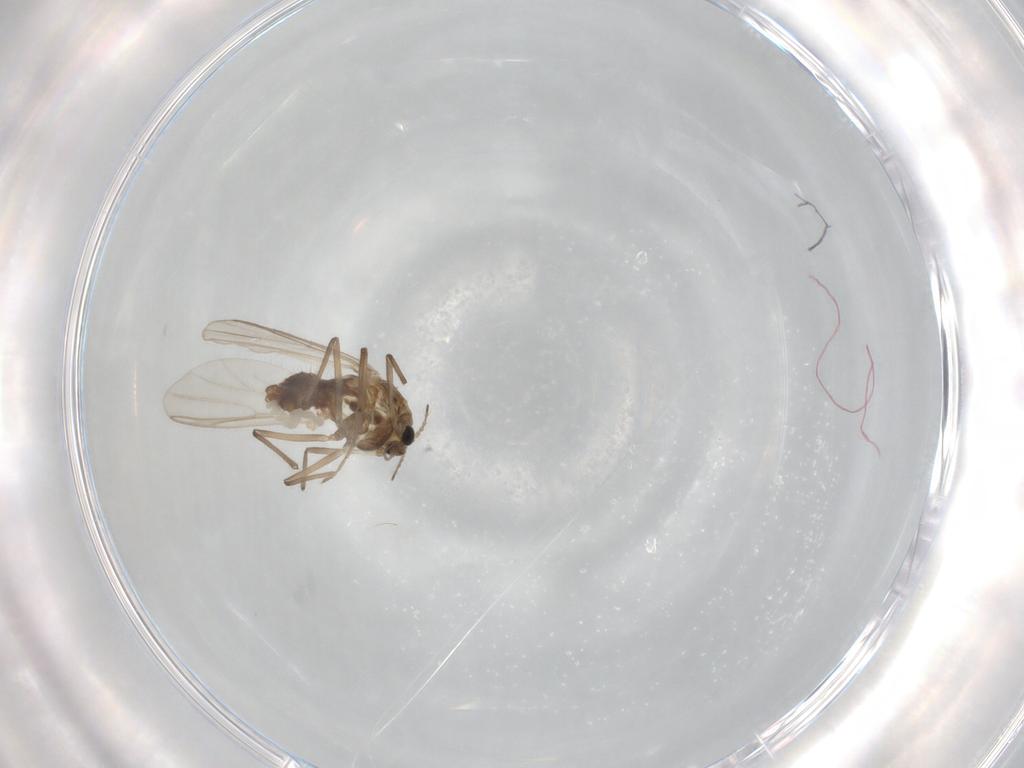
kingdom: Animalia
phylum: Arthropoda
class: Insecta
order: Diptera
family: Chironomidae
